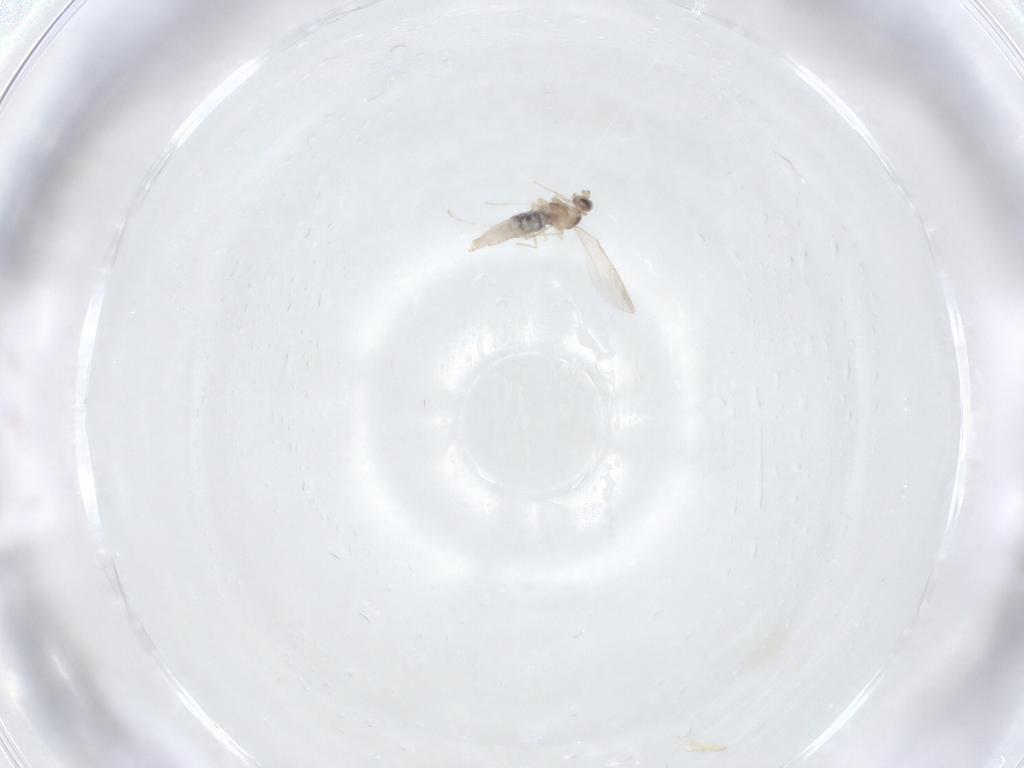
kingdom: Animalia
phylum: Arthropoda
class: Insecta
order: Diptera
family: Cecidomyiidae
